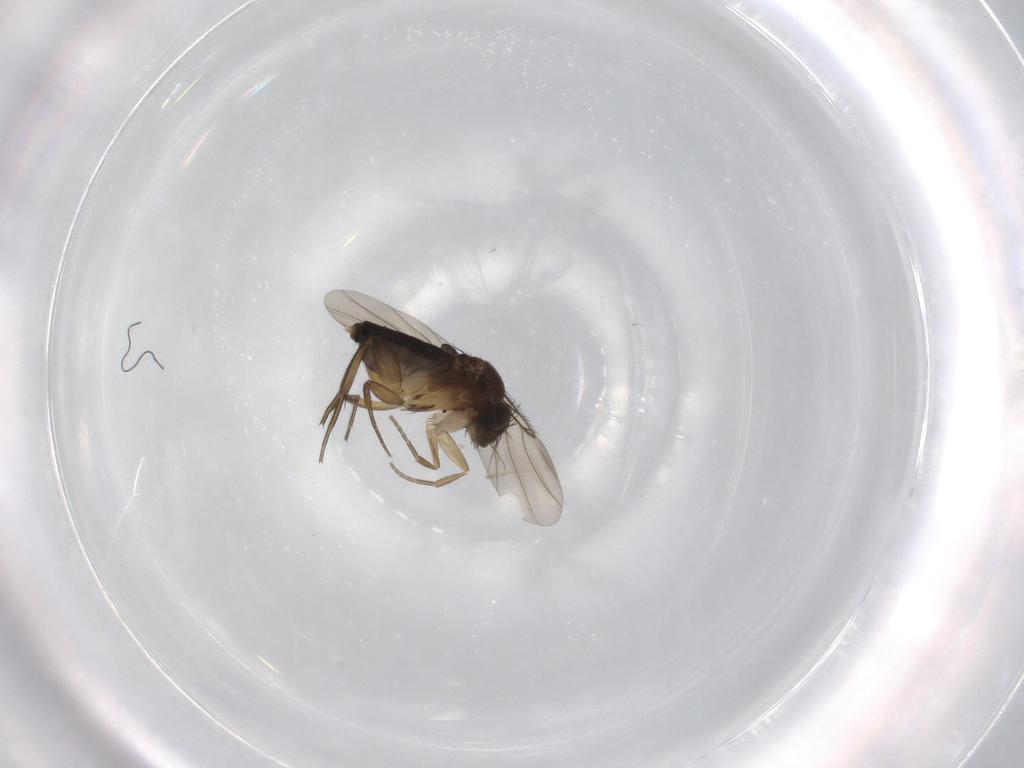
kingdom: Animalia
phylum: Arthropoda
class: Insecta
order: Diptera
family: Phoridae
